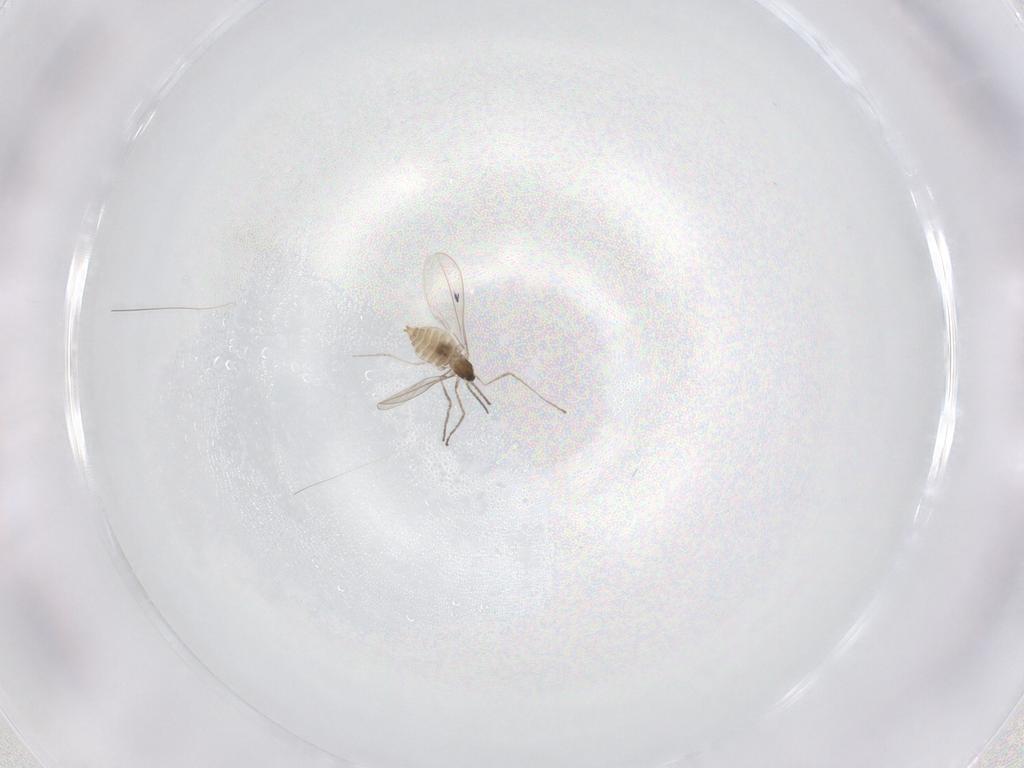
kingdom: Animalia
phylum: Arthropoda
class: Insecta
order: Diptera
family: Cecidomyiidae
